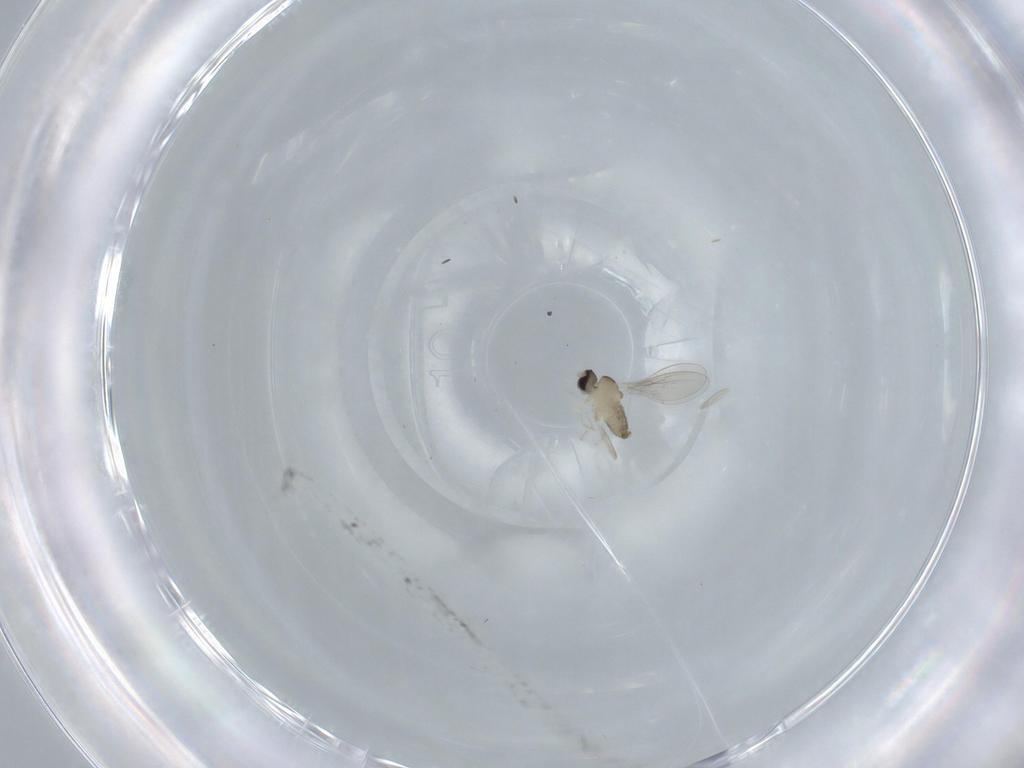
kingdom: Animalia
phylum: Arthropoda
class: Insecta
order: Diptera
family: Cecidomyiidae
